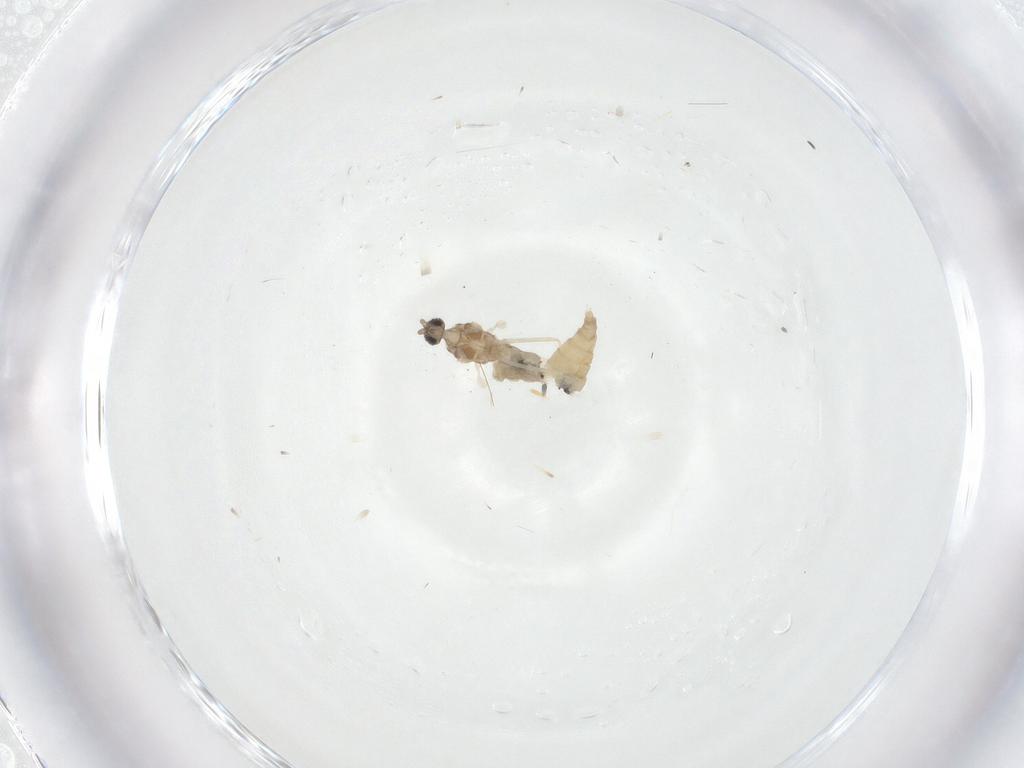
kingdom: Animalia
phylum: Arthropoda
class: Insecta
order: Diptera
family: Cecidomyiidae
